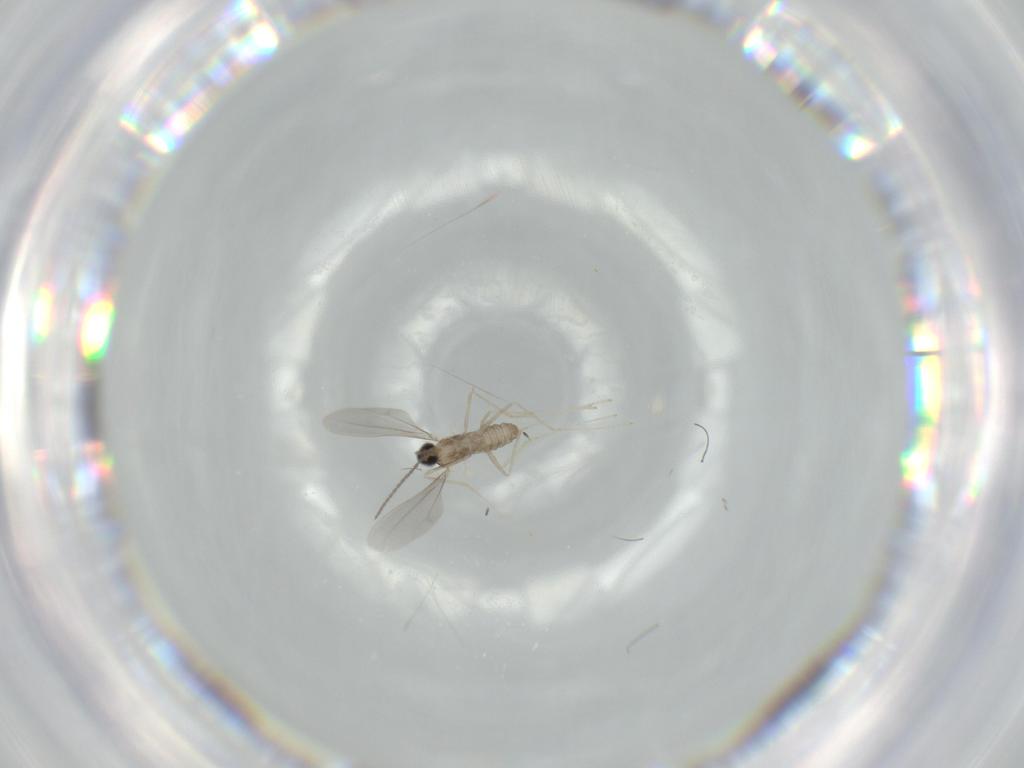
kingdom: Animalia
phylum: Arthropoda
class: Insecta
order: Diptera
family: Cecidomyiidae
